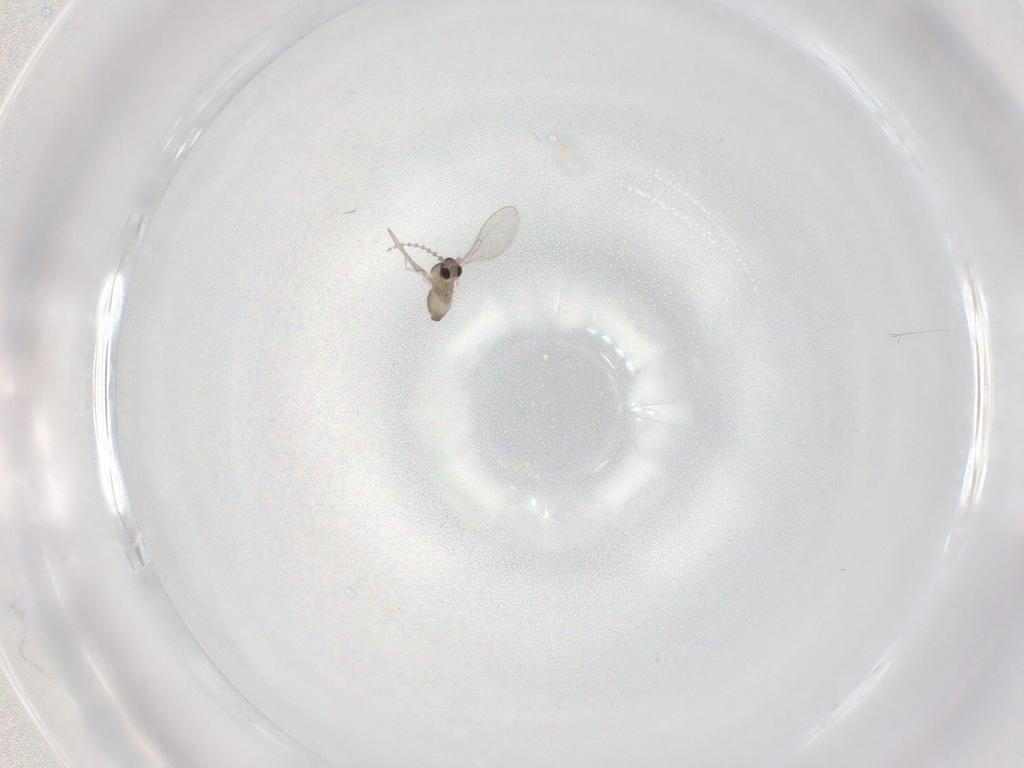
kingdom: Animalia
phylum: Arthropoda
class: Insecta
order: Diptera
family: Cecidomyiidae
